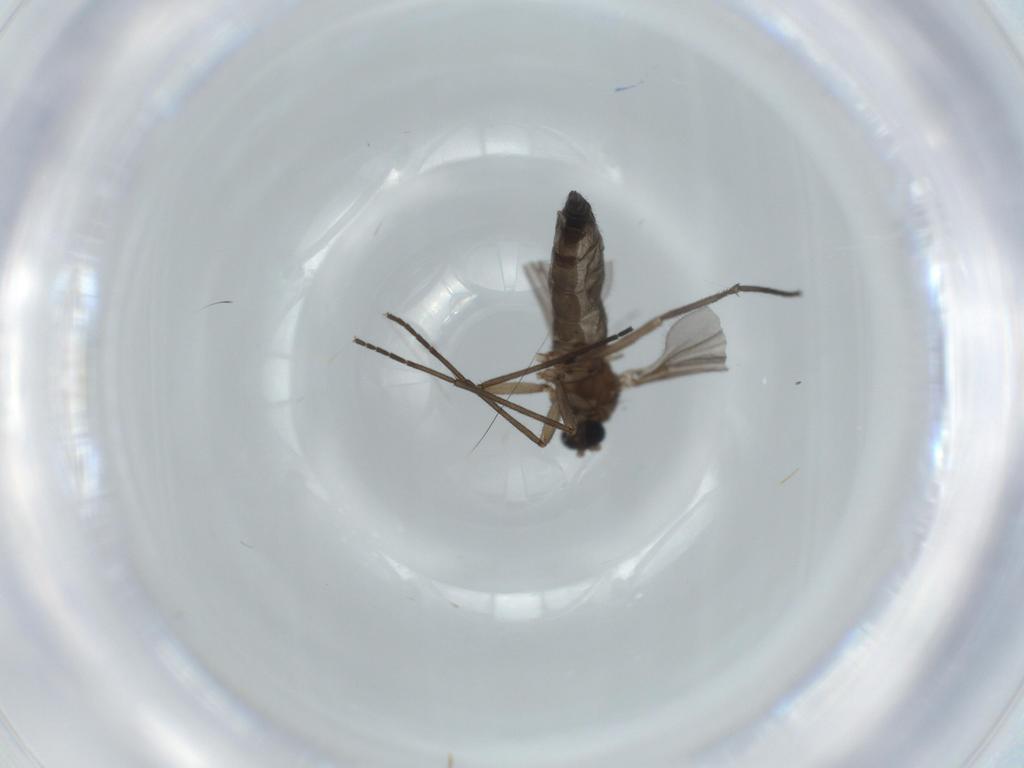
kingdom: Animalia
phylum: Arthropoda
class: Insecta
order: Diptera
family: Sciaridae
